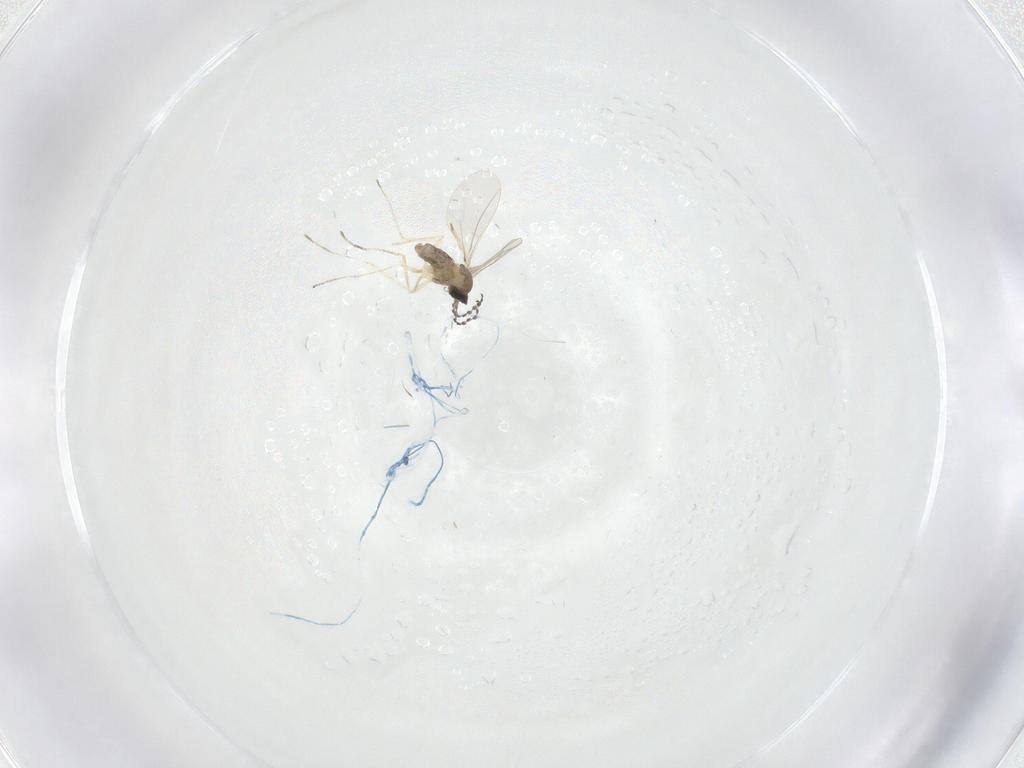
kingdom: Animalia
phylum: Arthropoda
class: Insecta
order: Diptera
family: Cecidomyiidae
